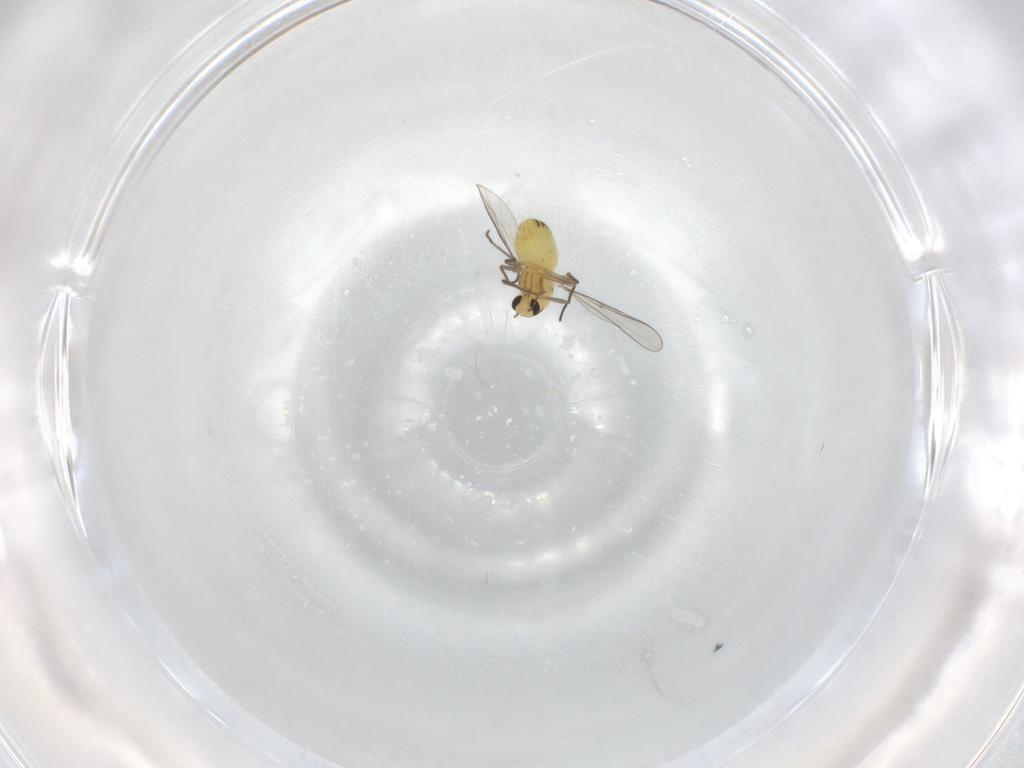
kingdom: Animalia
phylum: Arthropoda
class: Insecta
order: Diptera
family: Chironomidae
